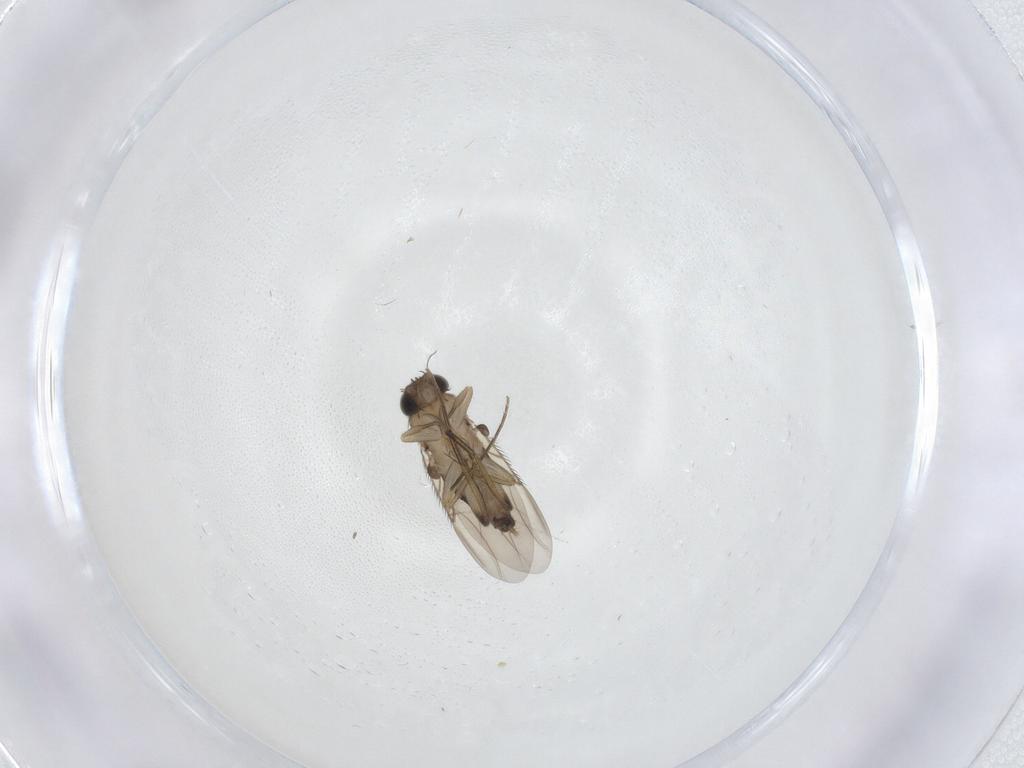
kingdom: Animalia
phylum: Arthropoda
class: Insecta
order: Diptera
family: Phoridae
